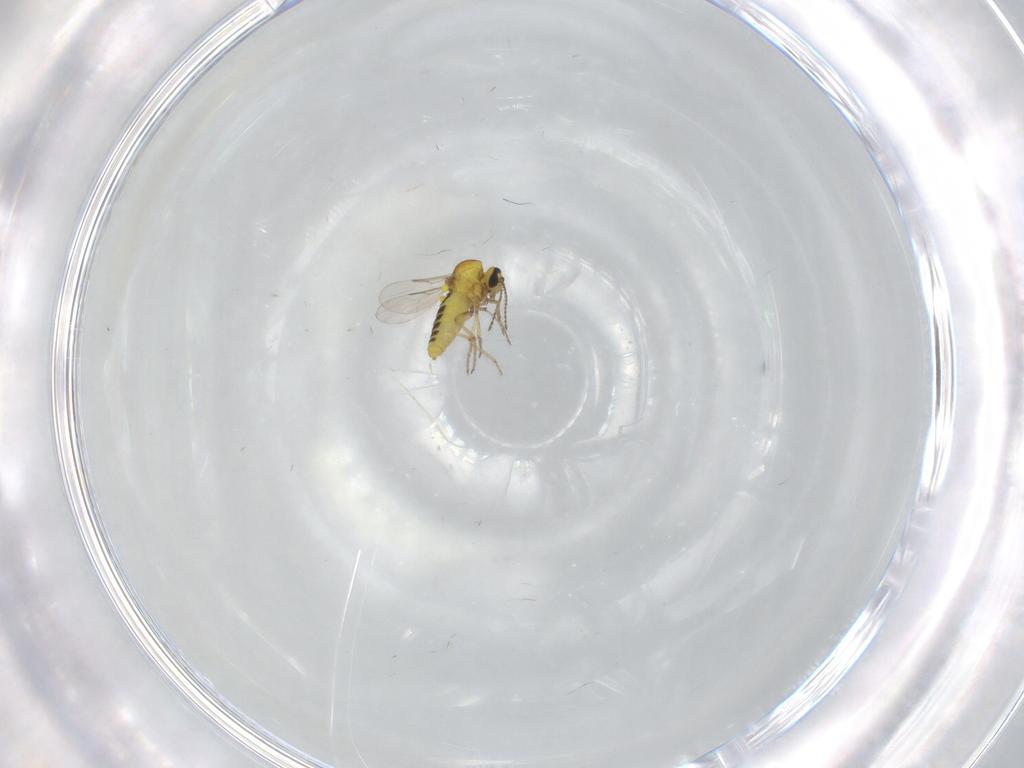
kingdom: Animalia
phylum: Arthropoda
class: Insecta
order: Diptera
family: Ceratopogonidae
